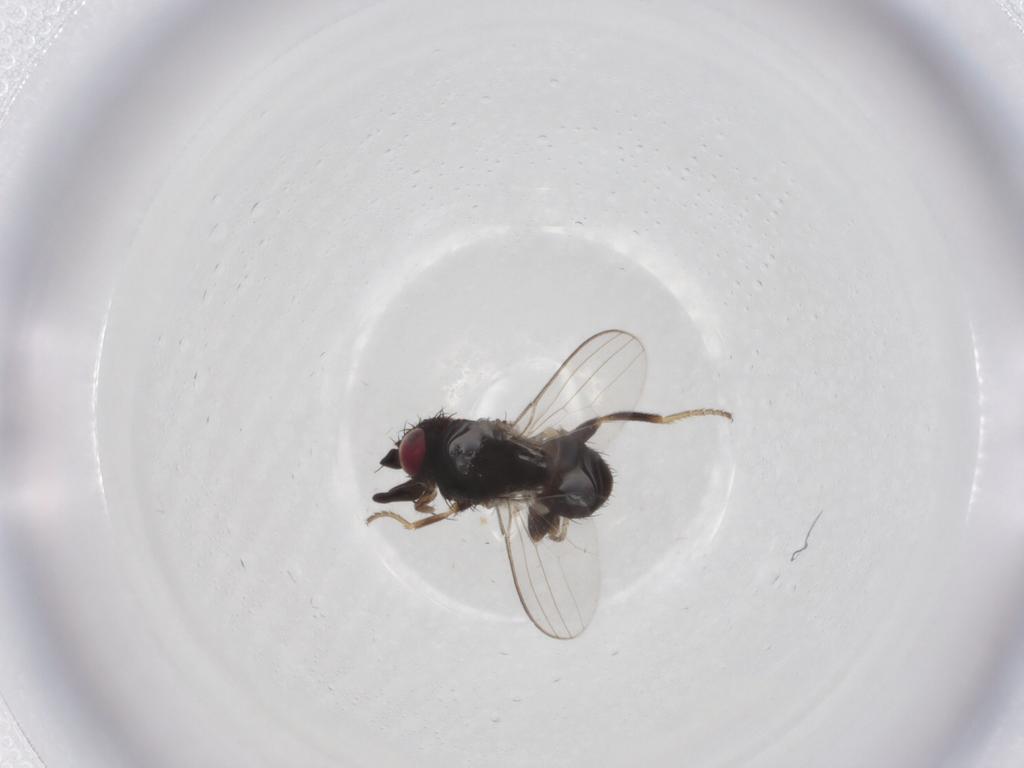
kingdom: Animalia
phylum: Arthropoda
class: Insecta
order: Diptera
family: Milichiidae
